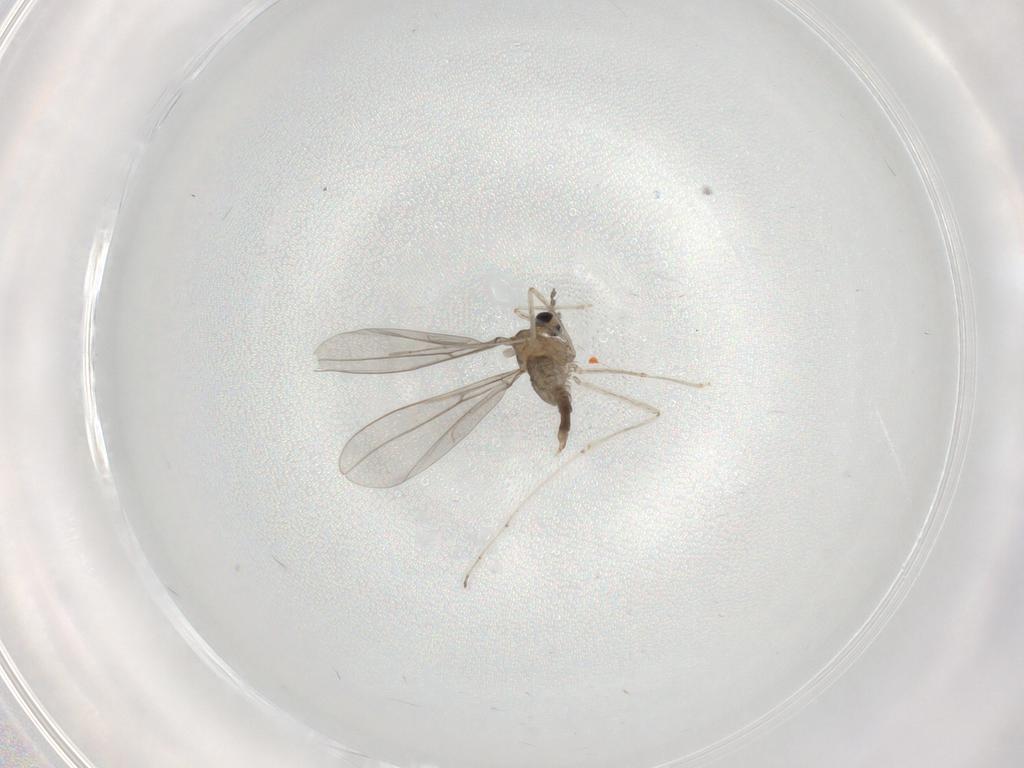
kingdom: Animalia
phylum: Arthropoda
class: Insecta
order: Diptera
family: Cecidomyiidae
